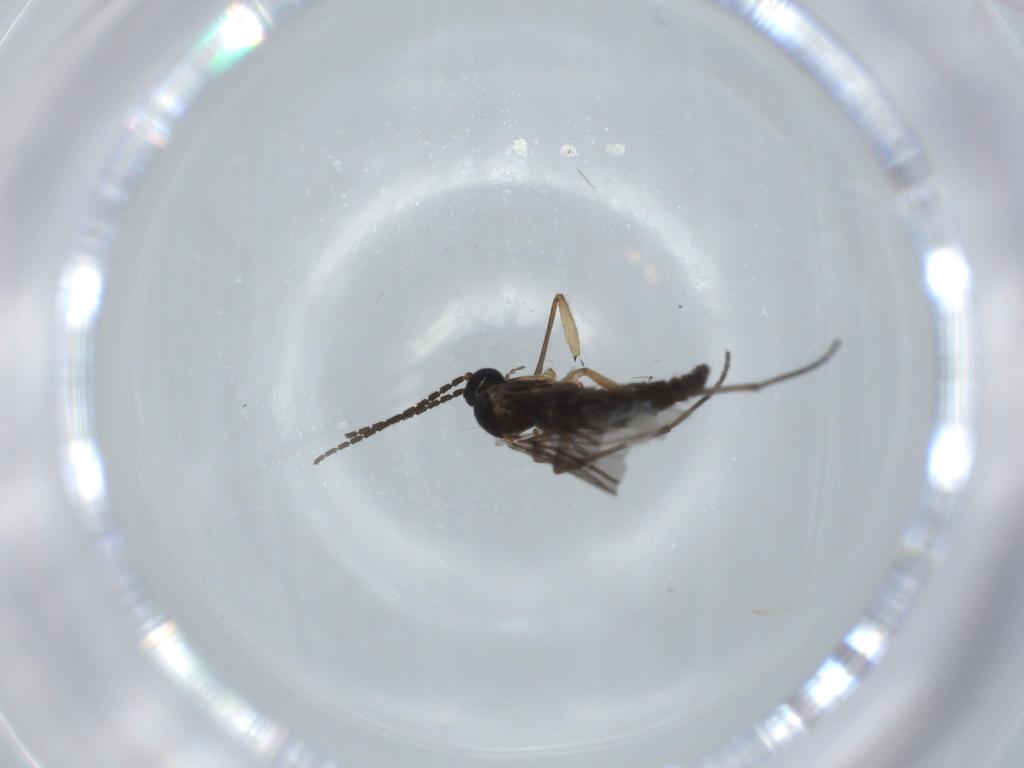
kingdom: Animalia
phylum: Arthropoda
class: Insecta
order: Diptera
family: Sciaridae
